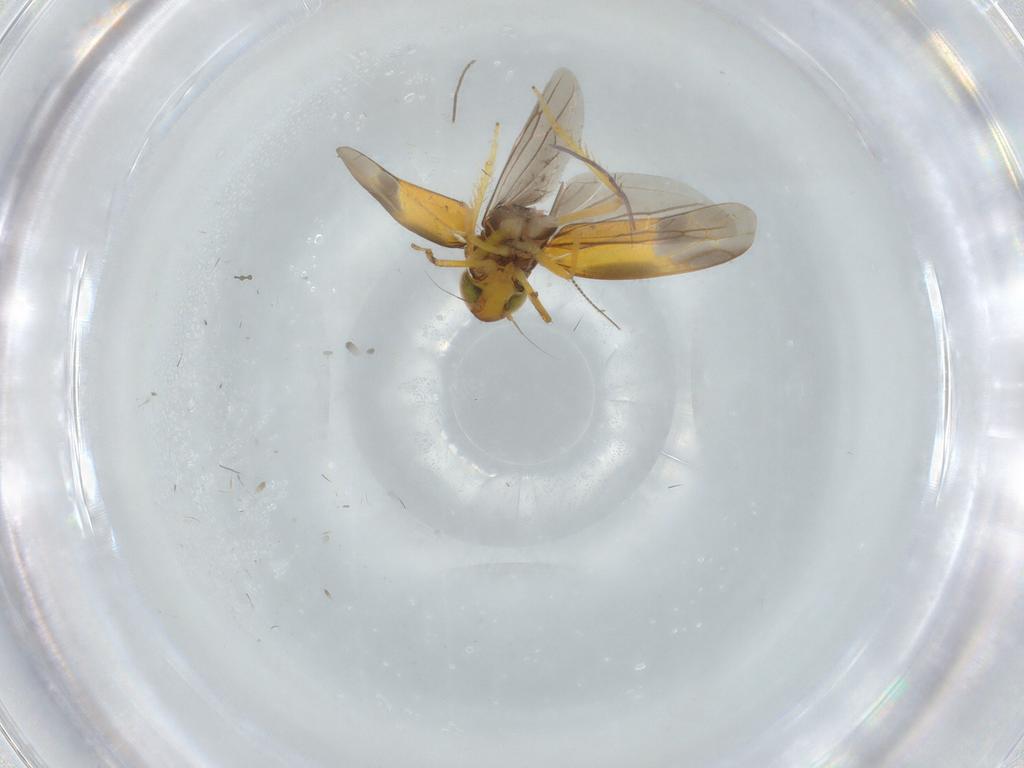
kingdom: Animalia
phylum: Arthropoda
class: Insecta
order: Hemiptera
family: Cicadellidae
